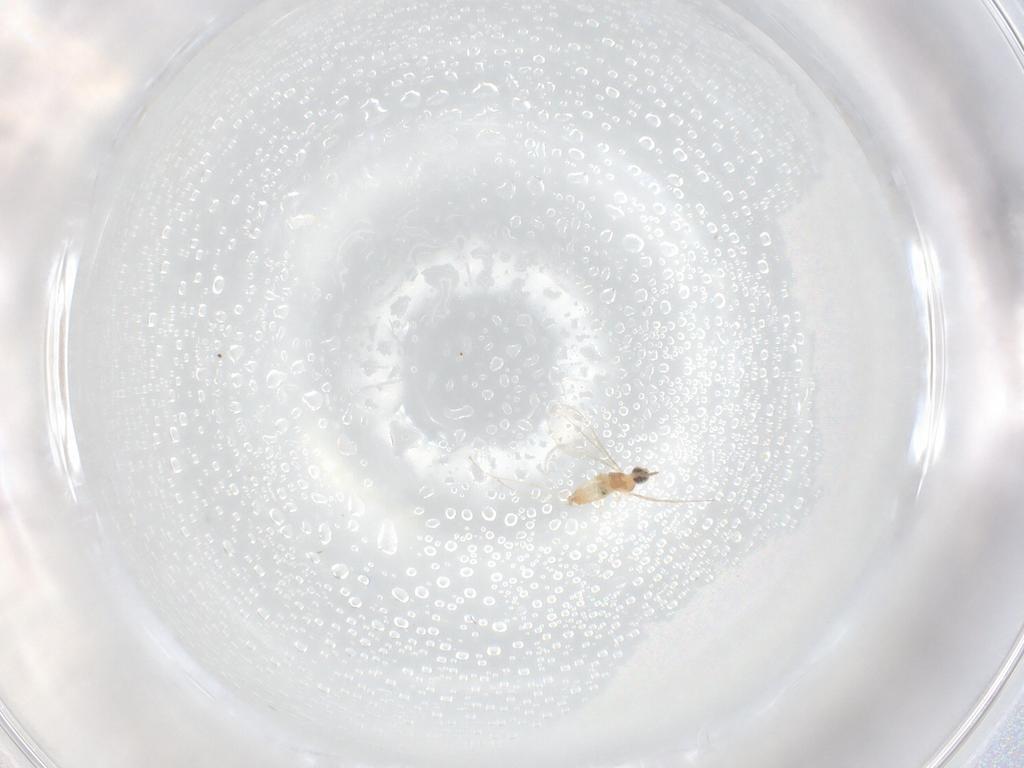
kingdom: Animalia
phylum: Arthropoda
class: Insecta
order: Diptera
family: Cecidomyiidae
